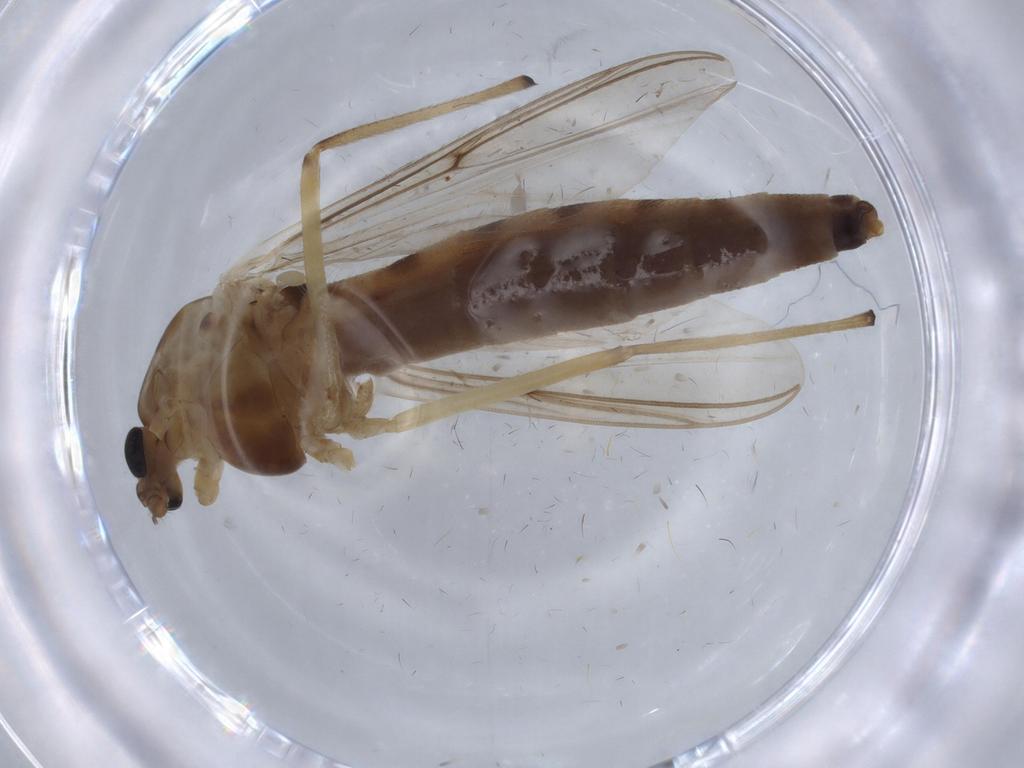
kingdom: Animalia
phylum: Arthropoda
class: Insecta
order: Diptera
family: Chironomidae
